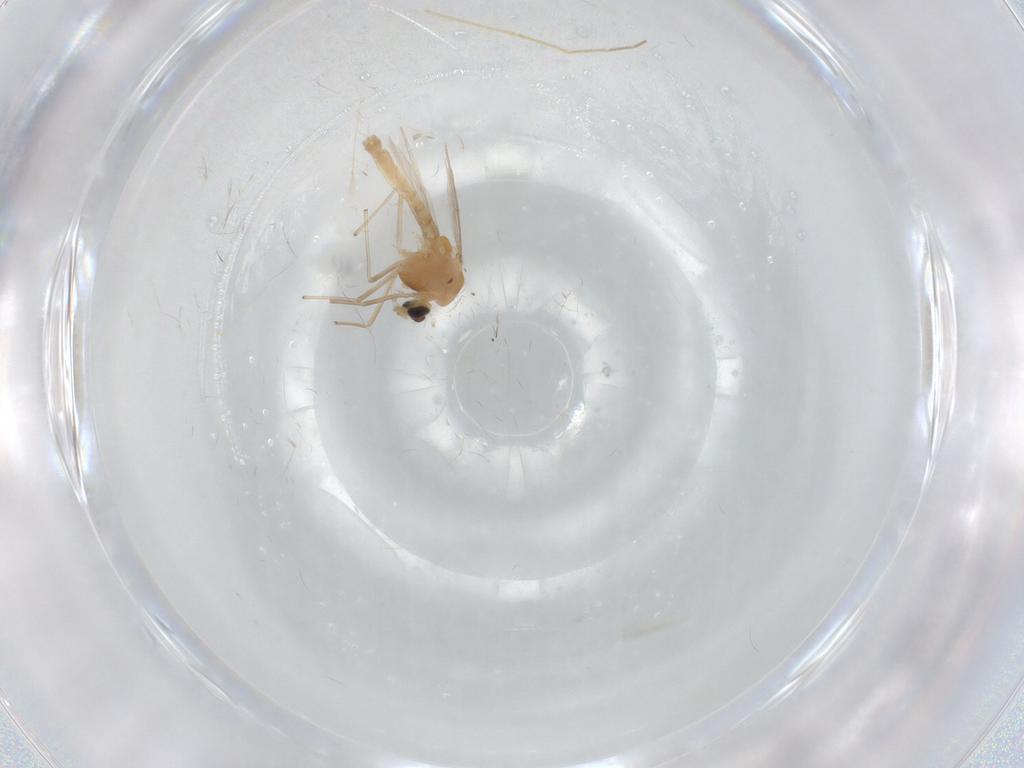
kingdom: Animalia
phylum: Arthropoda
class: Insecta
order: Diptera
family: Chironomidae
